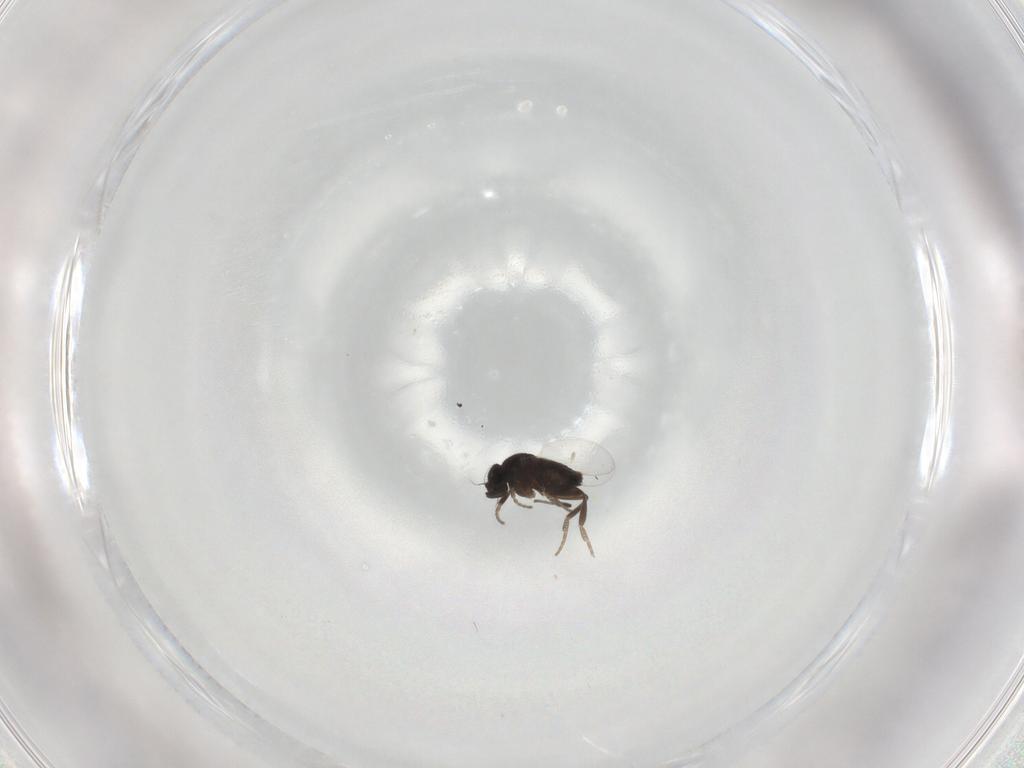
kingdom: Animalia
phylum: Arthropoda
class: Insecta
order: Diptera
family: Phoridae
